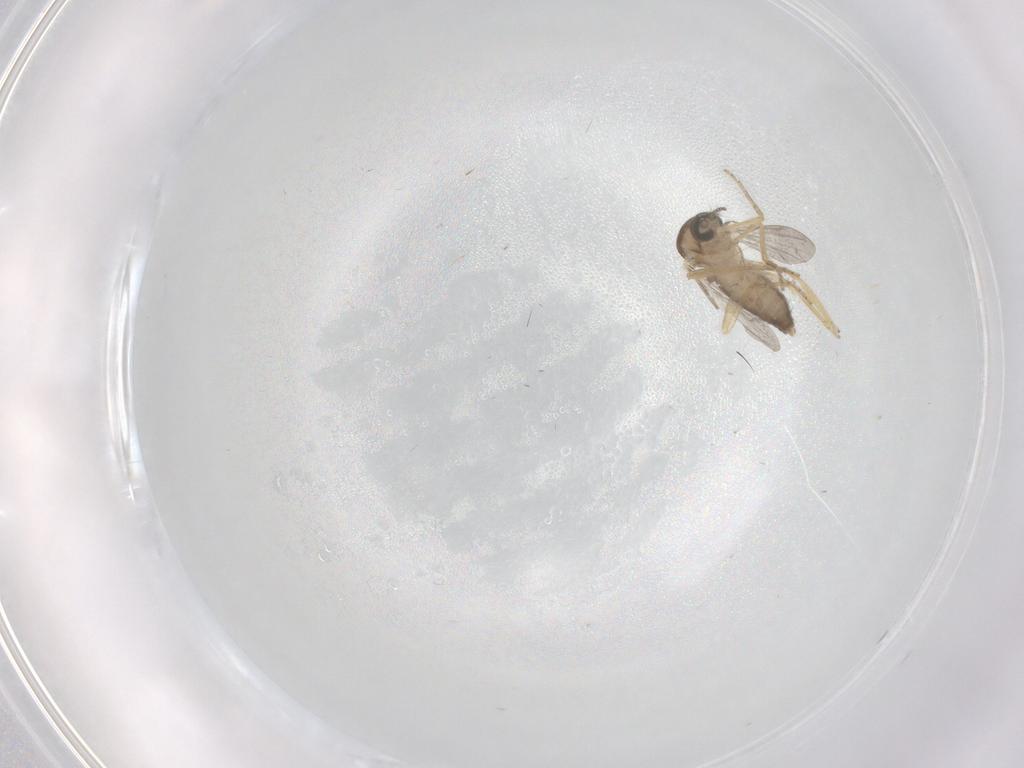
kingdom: Animalia
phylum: Arthropoda
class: Insecta
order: Diptera
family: Ceratopogonidae
